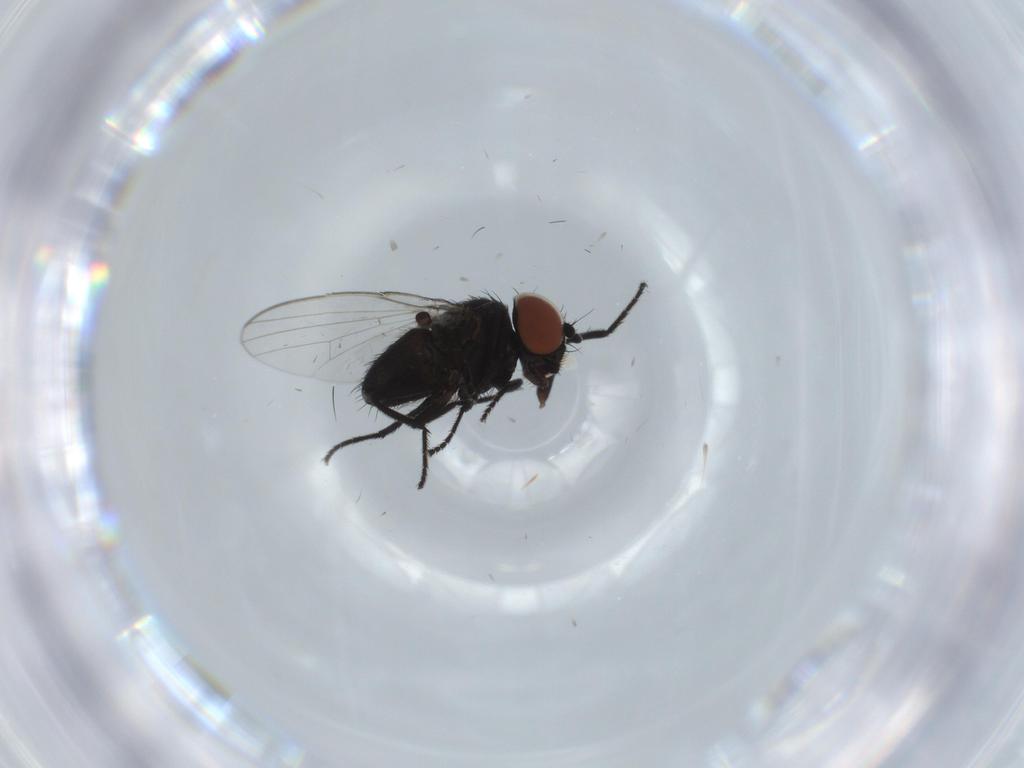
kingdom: Animalia
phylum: Arthropoda
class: Insecta
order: Diptera
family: Milichiidae
